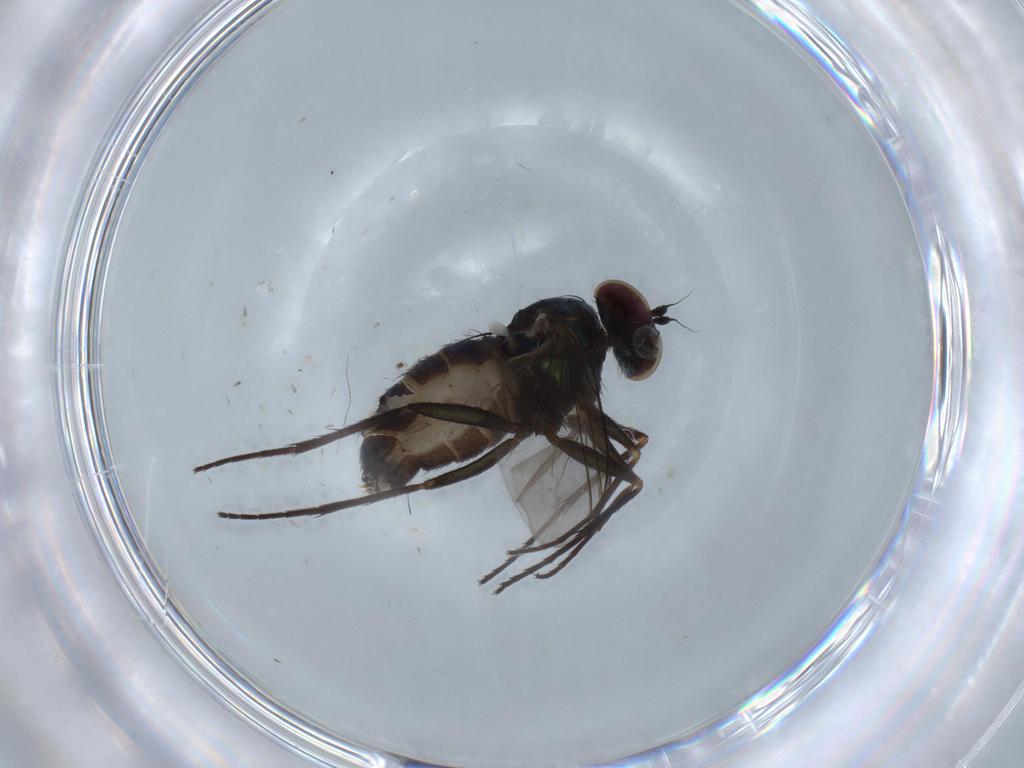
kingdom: Animalia
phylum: Arthropoda
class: Insecta
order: Diptera
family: Dolichopodidae
